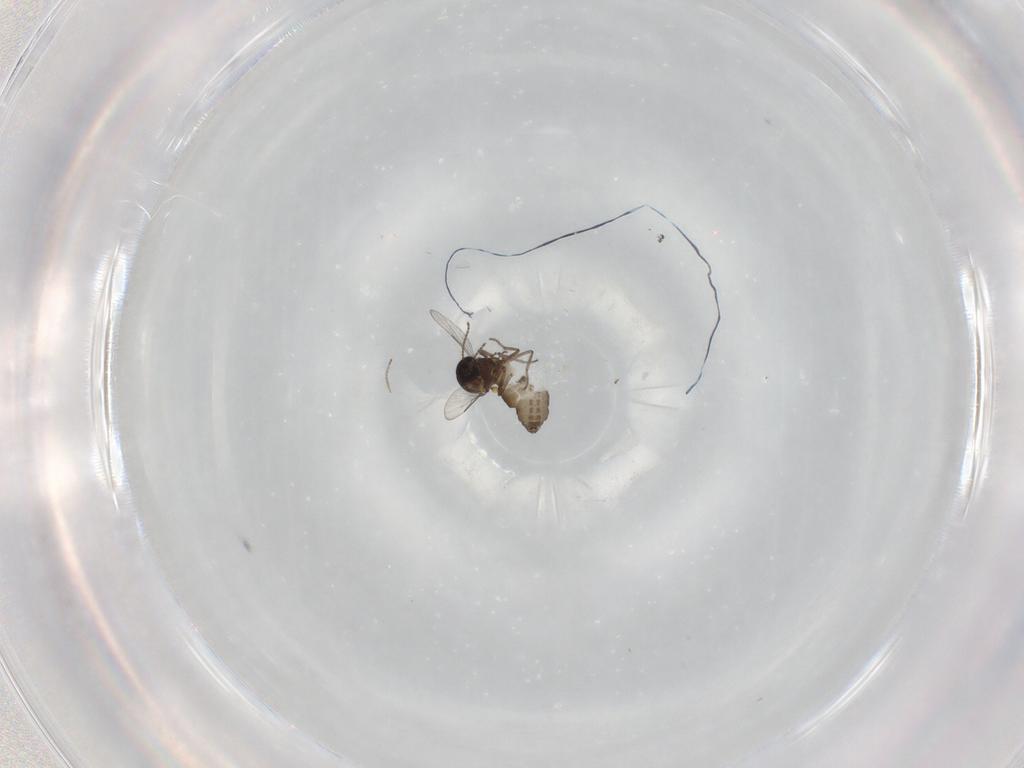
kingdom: Animalia
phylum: Arthropoda
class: Insecta
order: Diptera
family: Ceratopogonidae
